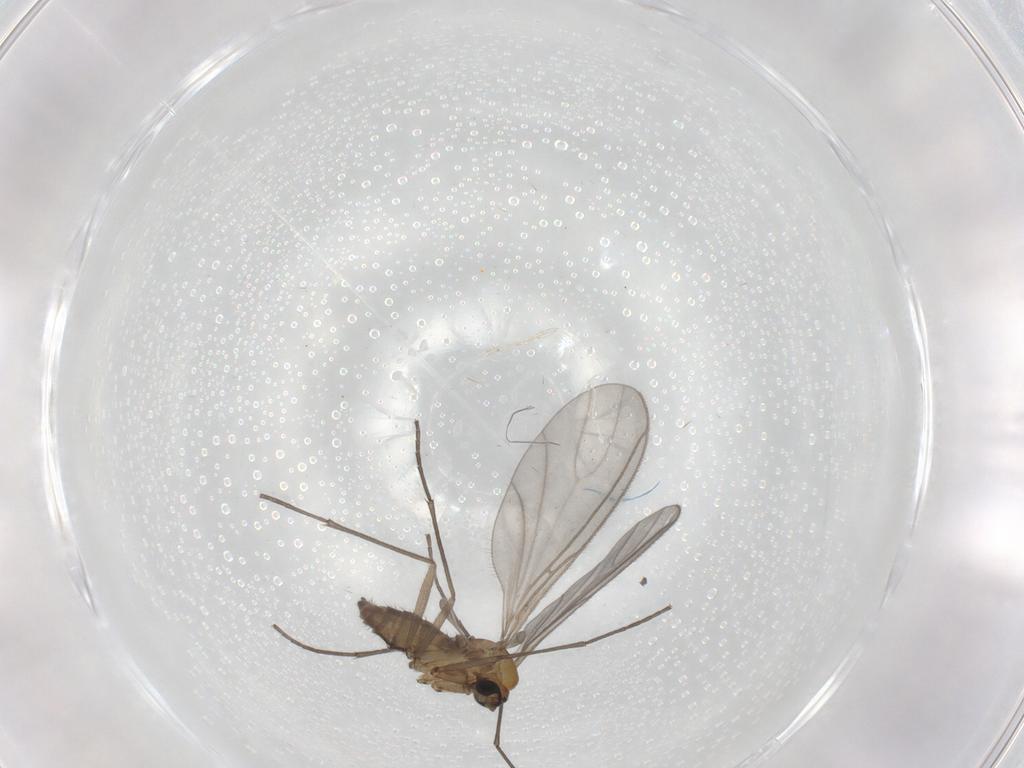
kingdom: Animalia
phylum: Arthropoda
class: Insecta
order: Diptera
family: Sciaridae
